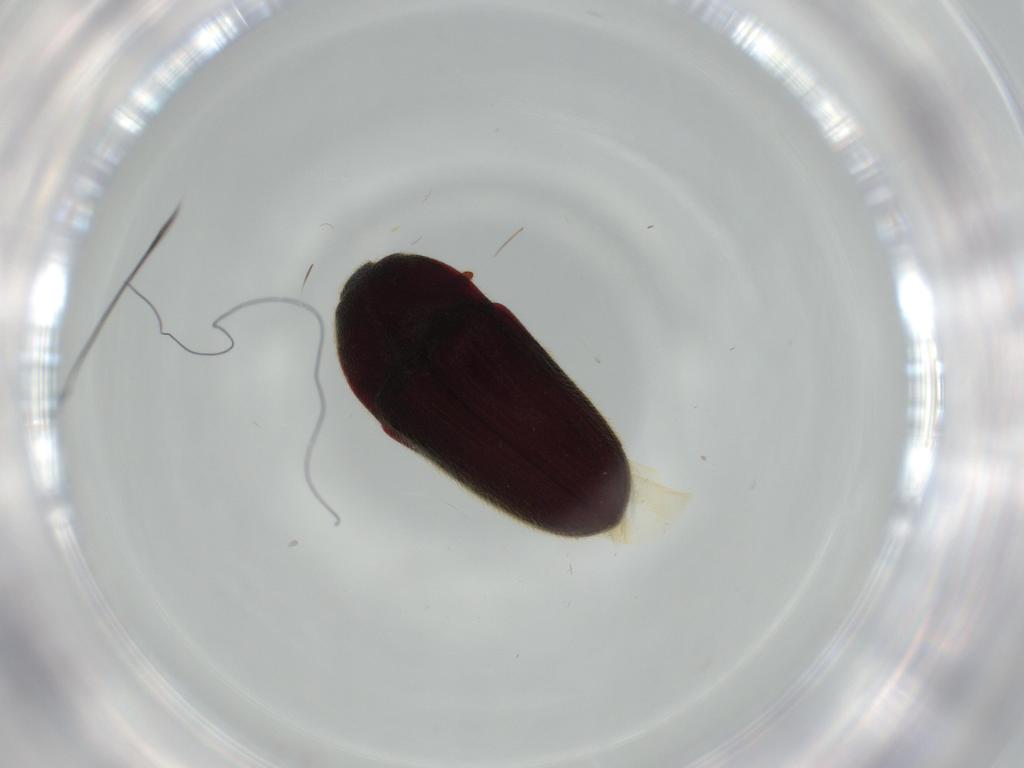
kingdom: Animalia
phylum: Arthropoda
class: Insecta
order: Coleoptera
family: Throscidae
